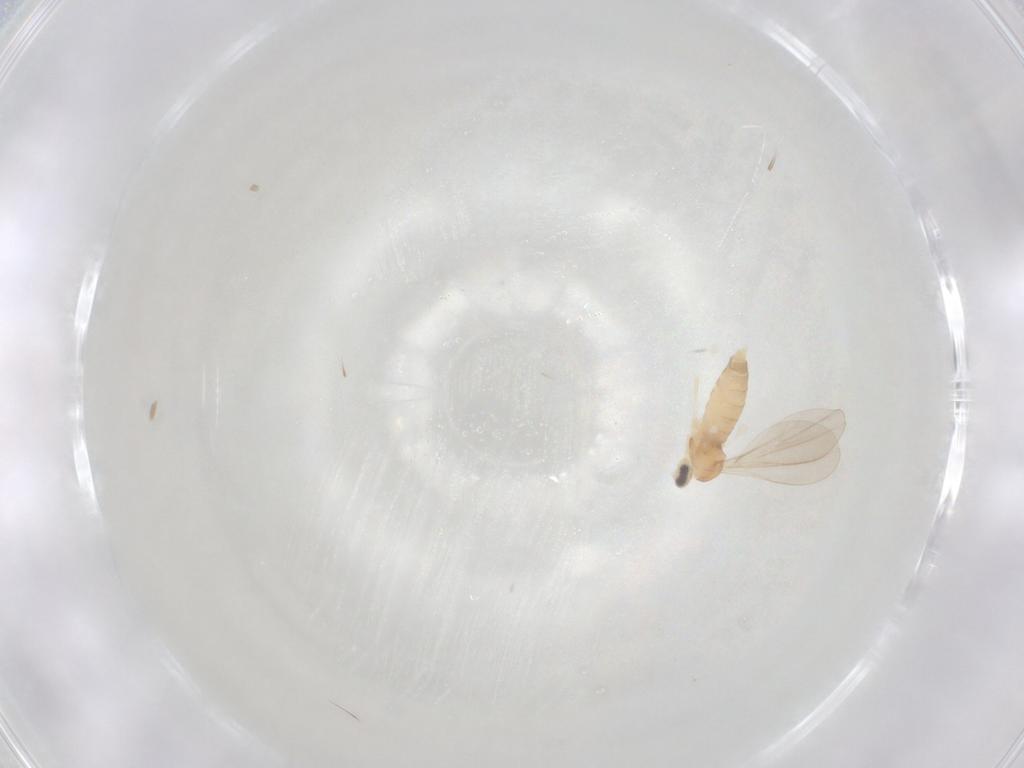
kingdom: Animalia
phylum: Arthropoda
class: Insecta
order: Diptera
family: Cecidomyiidae
